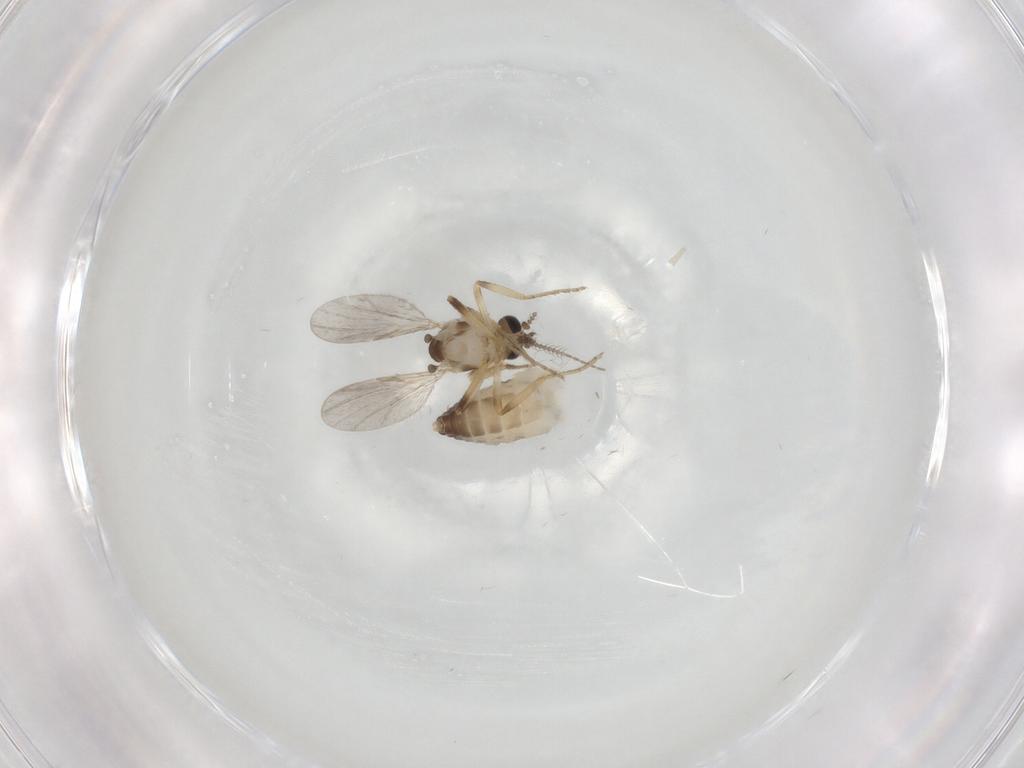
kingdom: Animalia
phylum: Arthropoda
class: Insecta
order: Diptera
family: Ceratopogonidae
